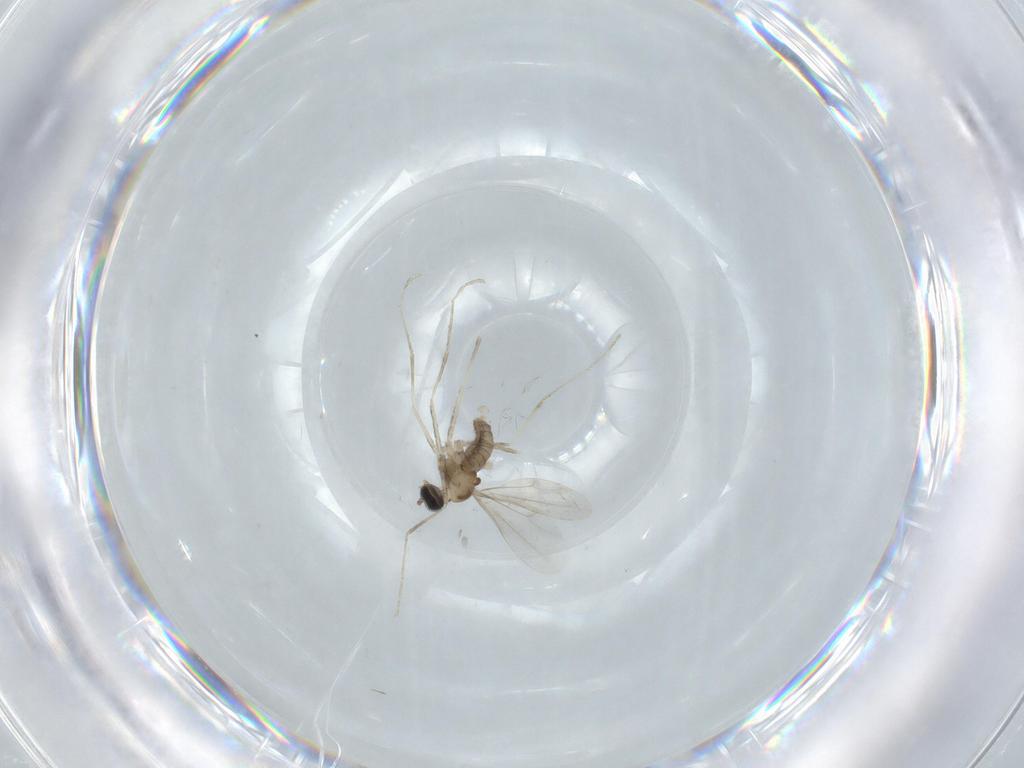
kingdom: Animalia
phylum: Arthropoda
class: Insecta
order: Diptera
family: Cecidomyiidae
